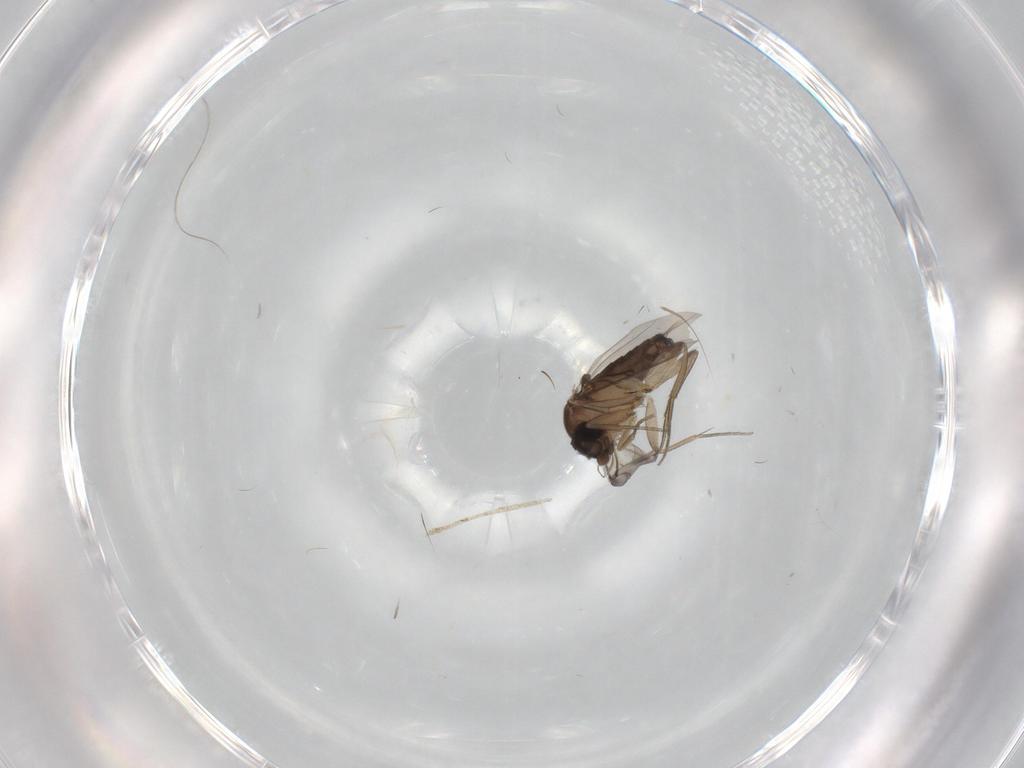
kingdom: Animalia
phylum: Arthropoda
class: Insecta
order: Diptera
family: Phoridae
